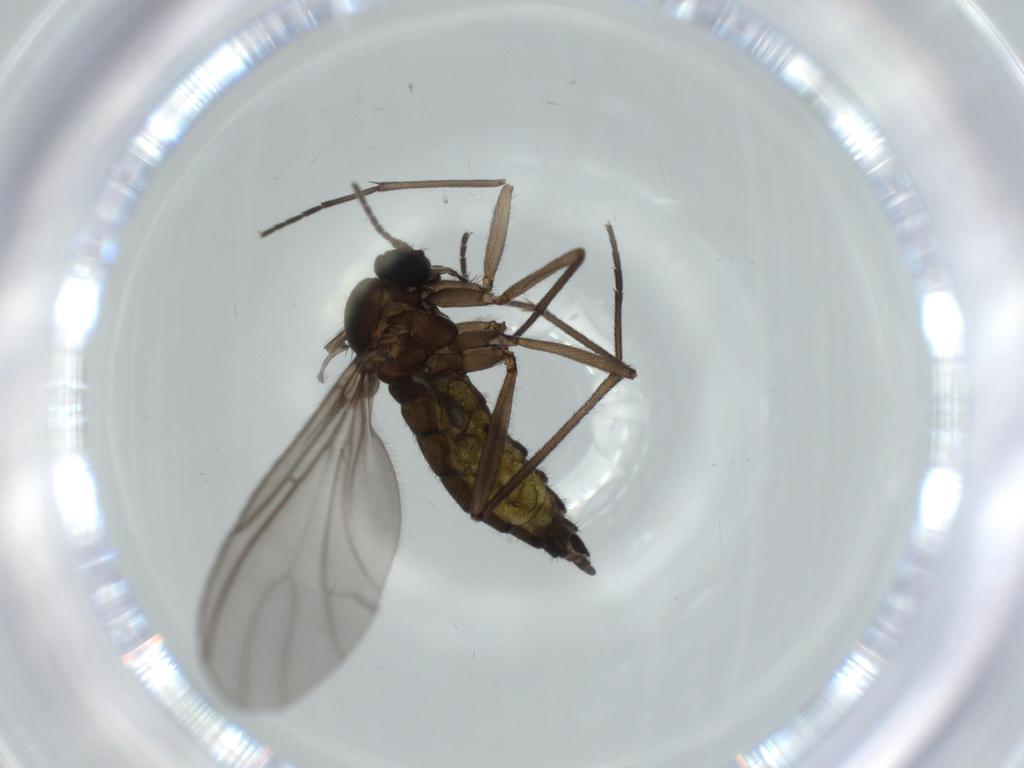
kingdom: Animalia
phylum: Arthropoda
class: Insecta
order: Diptera
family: Sciaridae
